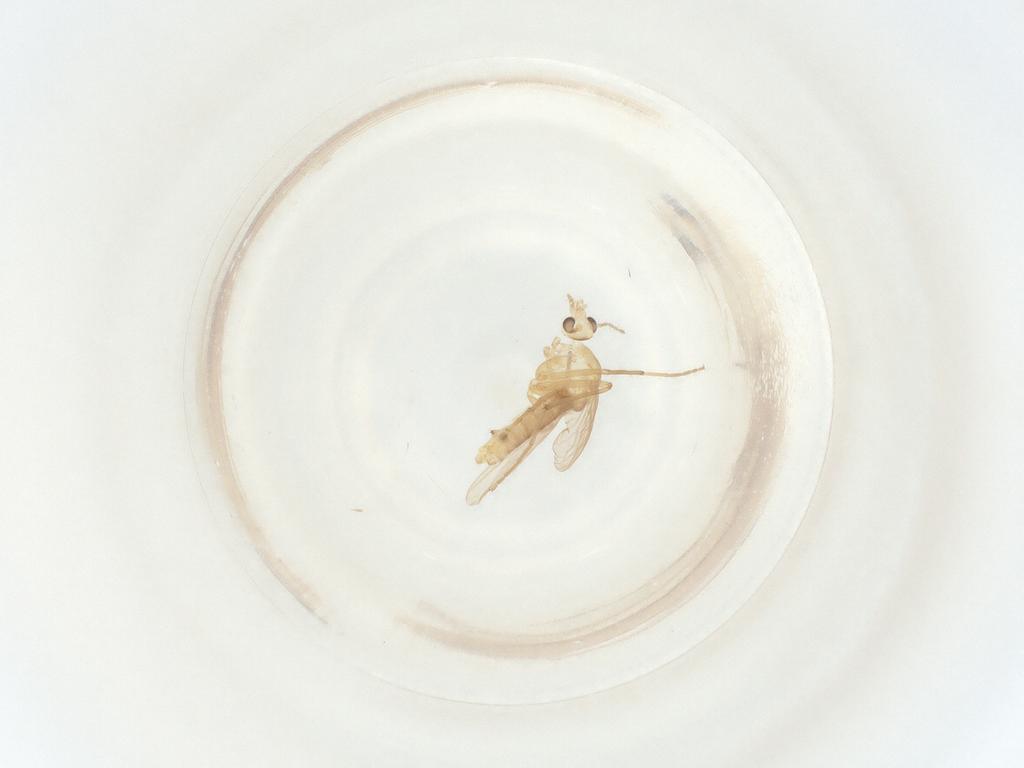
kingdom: Animalia
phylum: Arthropoda
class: Insecta
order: Diptera
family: Chironomidae
